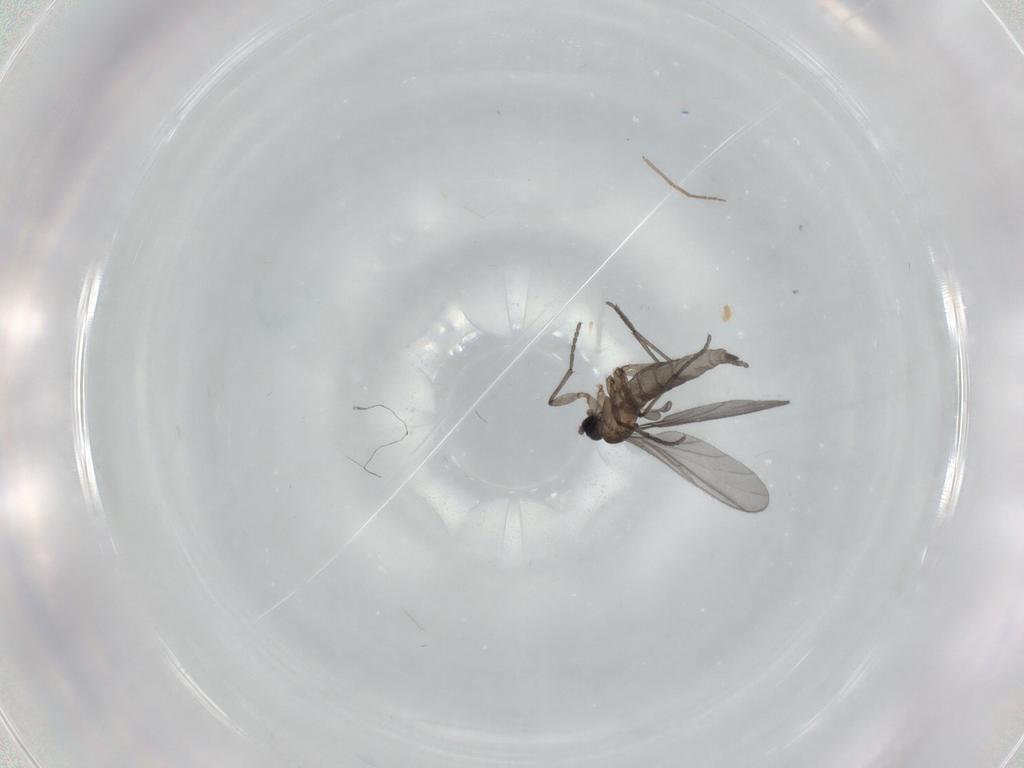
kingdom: Animalia
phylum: Arthropoda
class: Insecta
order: Diptera
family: Sciaridae
